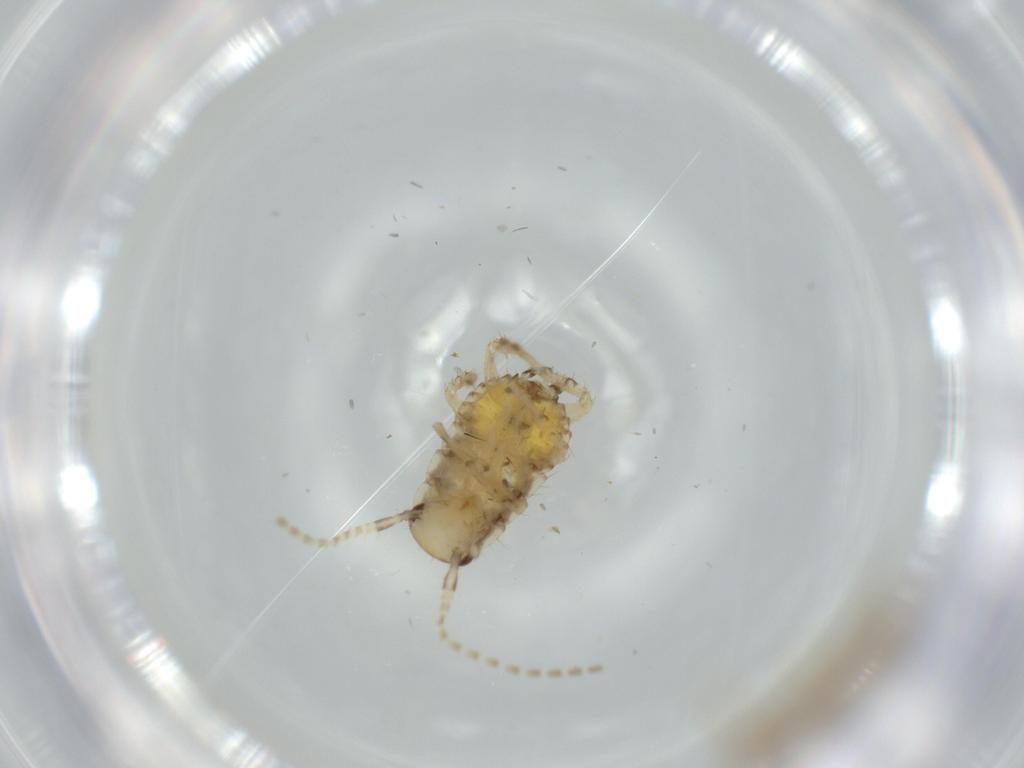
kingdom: Animalia
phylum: Arthropoda
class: Insecta
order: Blattodea
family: Ectobiidae
